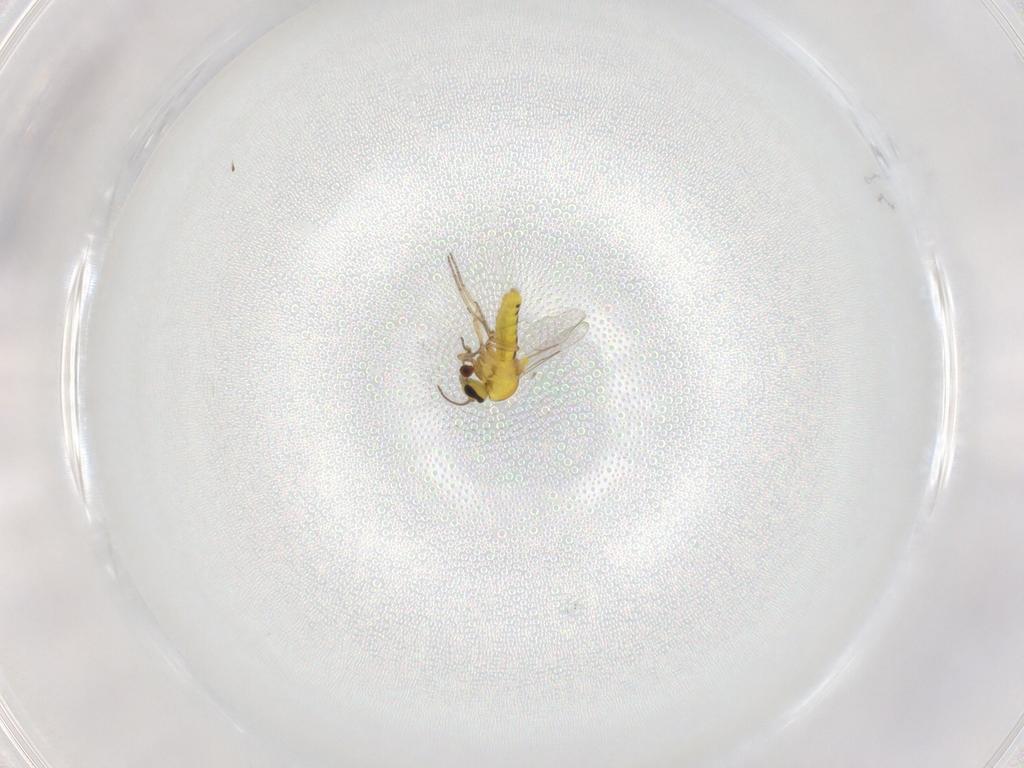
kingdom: Animalia
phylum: Arthropoda
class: Insecta
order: Diptera
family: Ceratopogonidae
